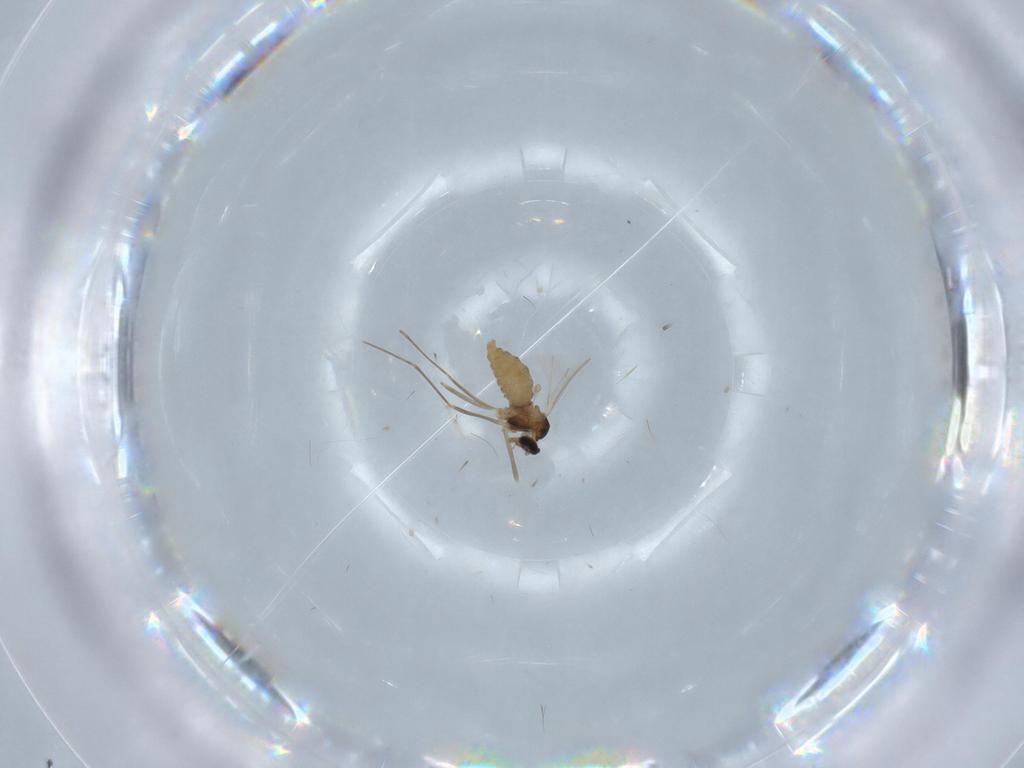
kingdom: Animalia
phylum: Arthropoda
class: Insecta
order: Diptera
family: Cecidomyiidae
